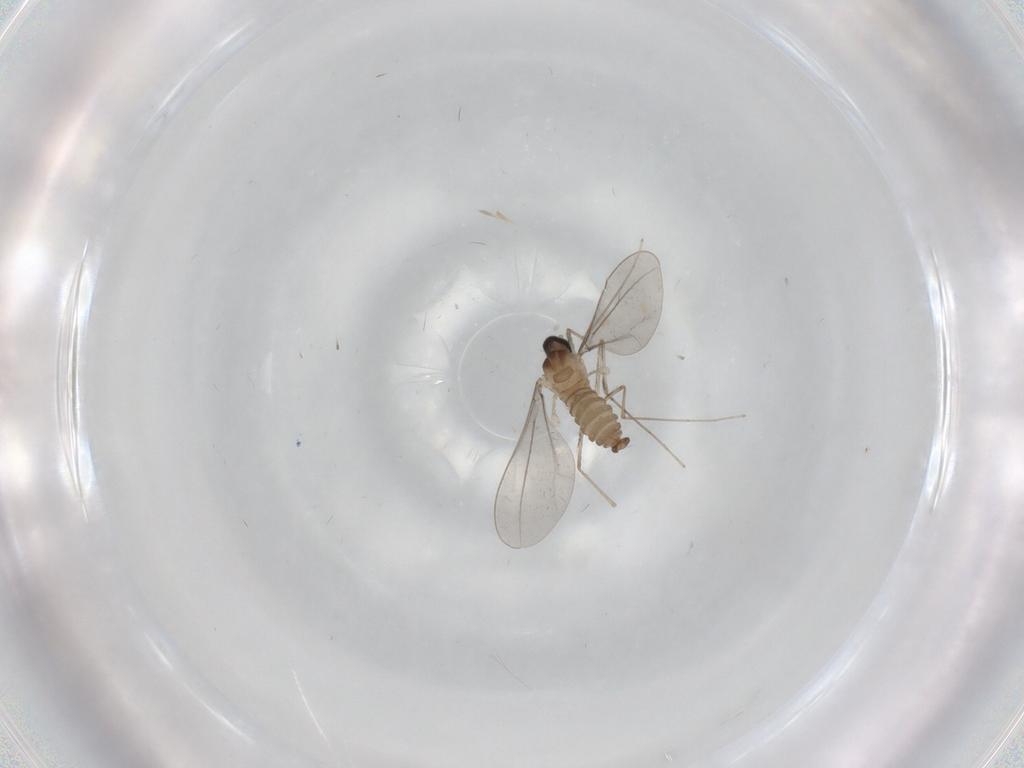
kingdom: Animalia
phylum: Arthropoda
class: Insecta
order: Diptera
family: Cecidomyiidae
